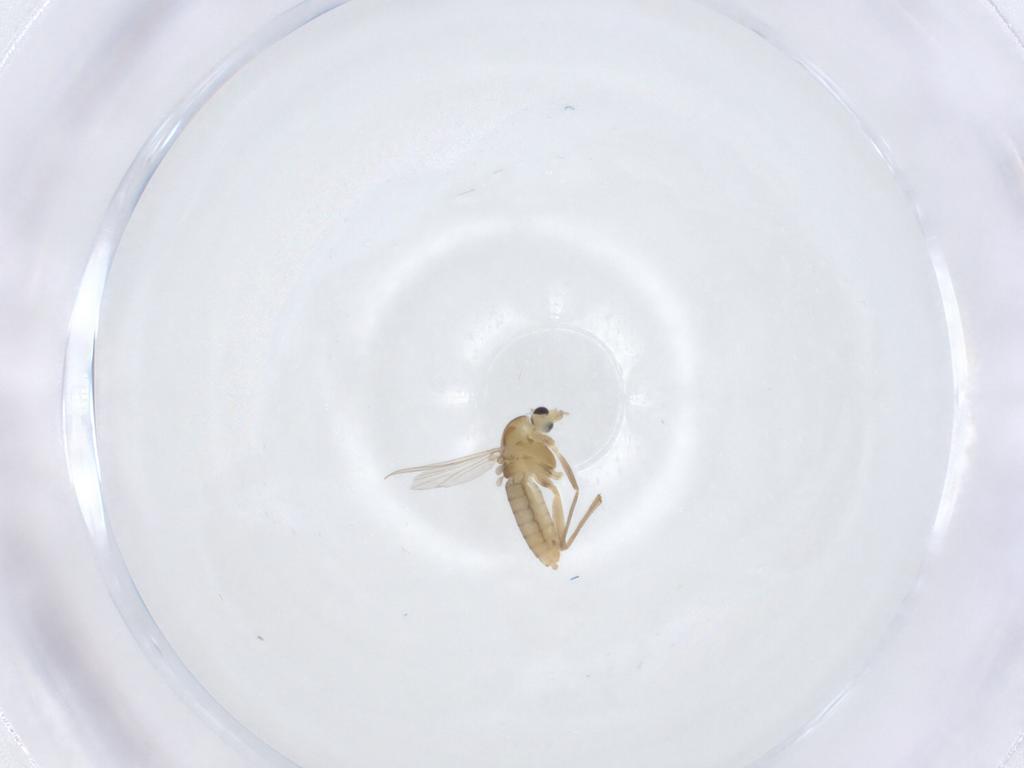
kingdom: Animalia
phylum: Arthropoda
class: Insecta
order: Diptera
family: Chironomidae
